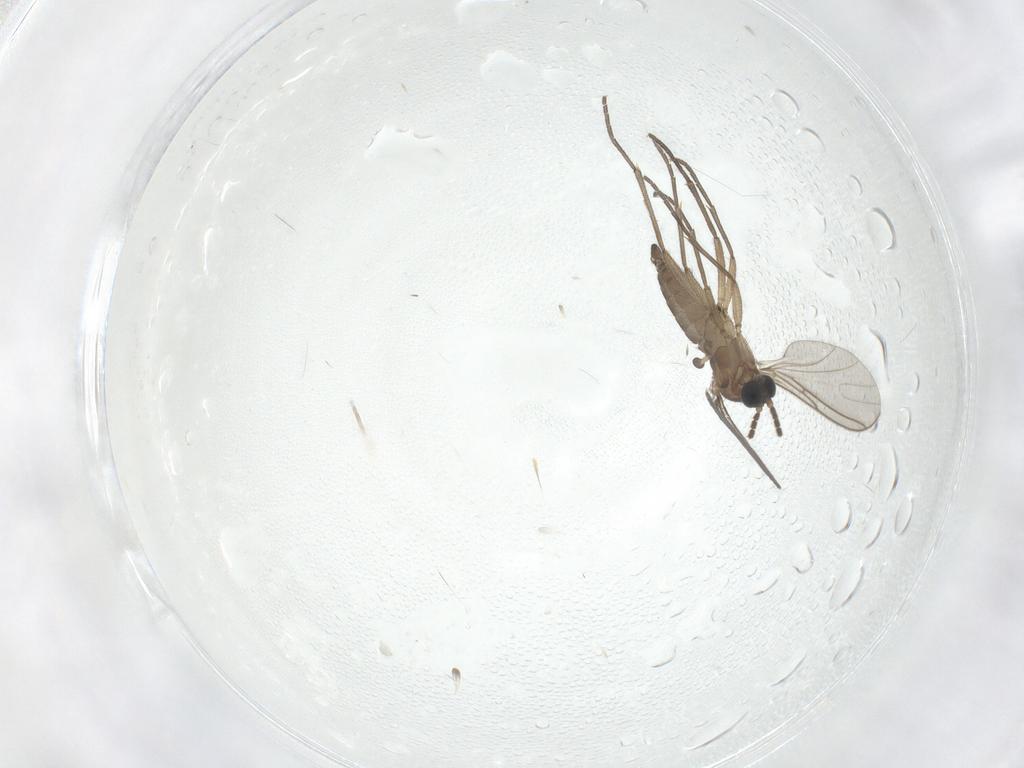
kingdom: Animalia
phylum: Arthropoda
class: Insecta
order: Diptera
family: Sciaridae
